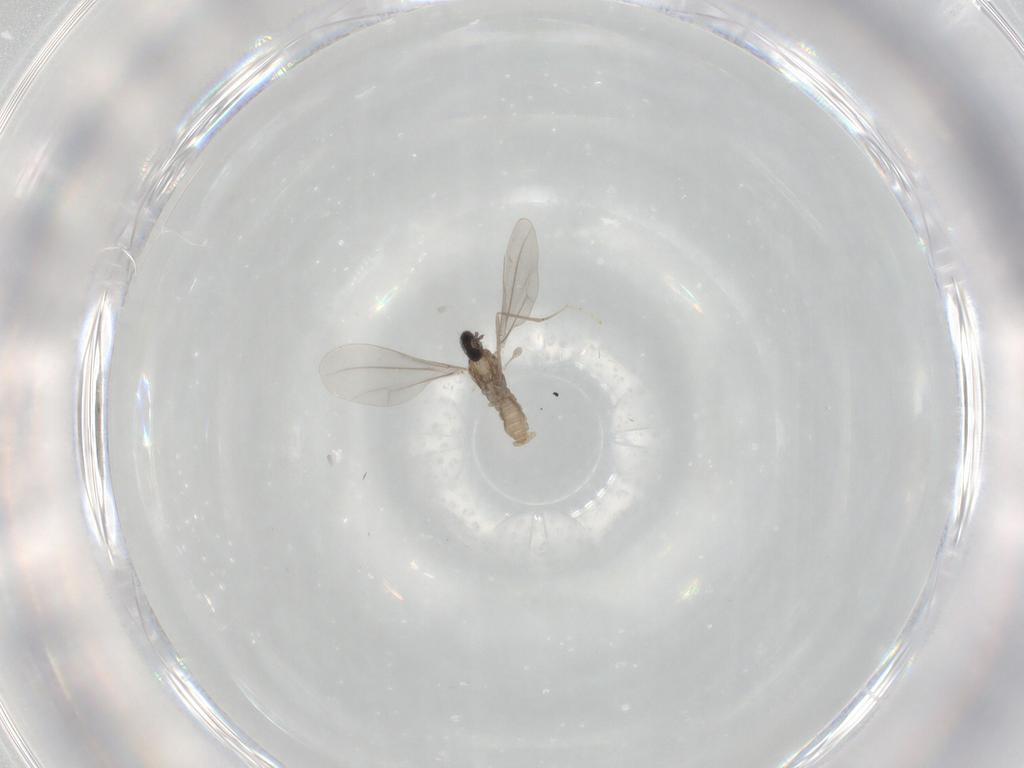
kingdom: Animalia
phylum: Arthropoda
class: Insecta
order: Diptera
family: Cecidomyiidae
